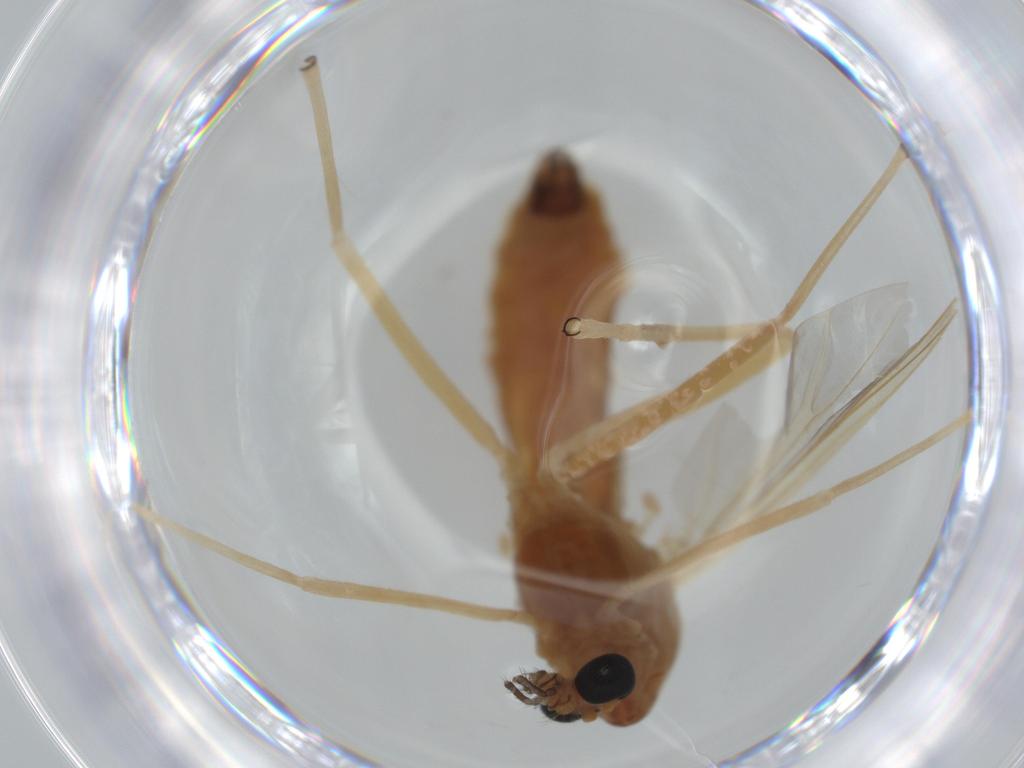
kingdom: Animalia
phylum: Arthropoda
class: Insecta
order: Diptera
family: Chironomidae
